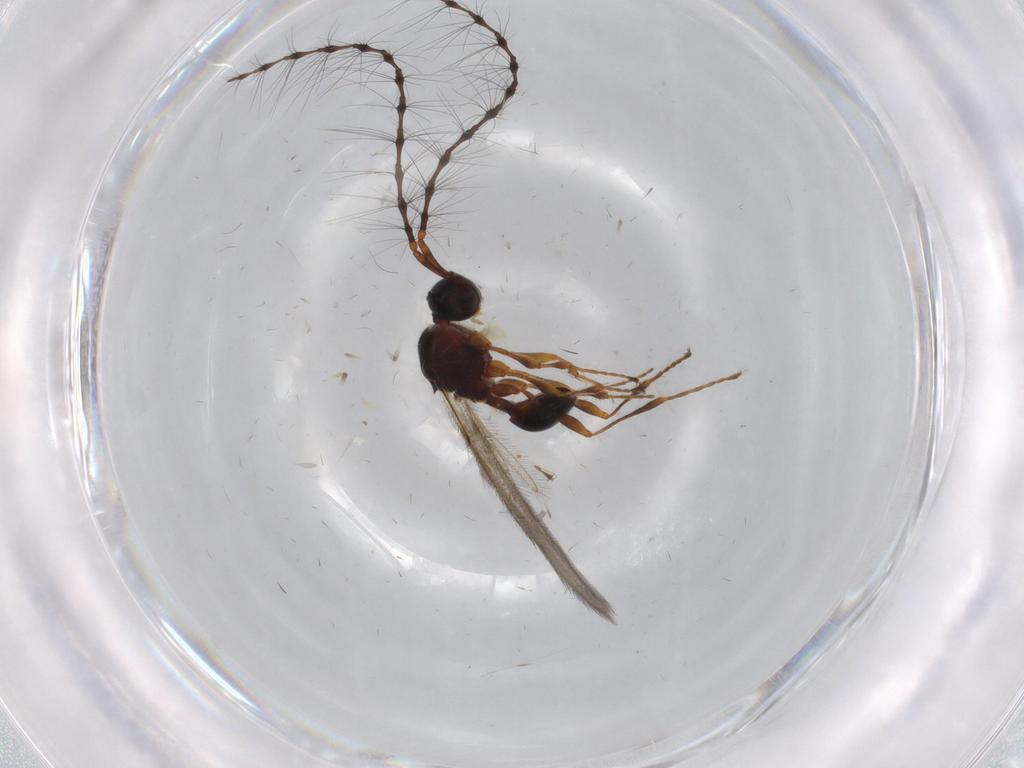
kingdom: Animalia
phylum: Arthropoda
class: Insecta
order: Hymenoptera
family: Diapriidae
